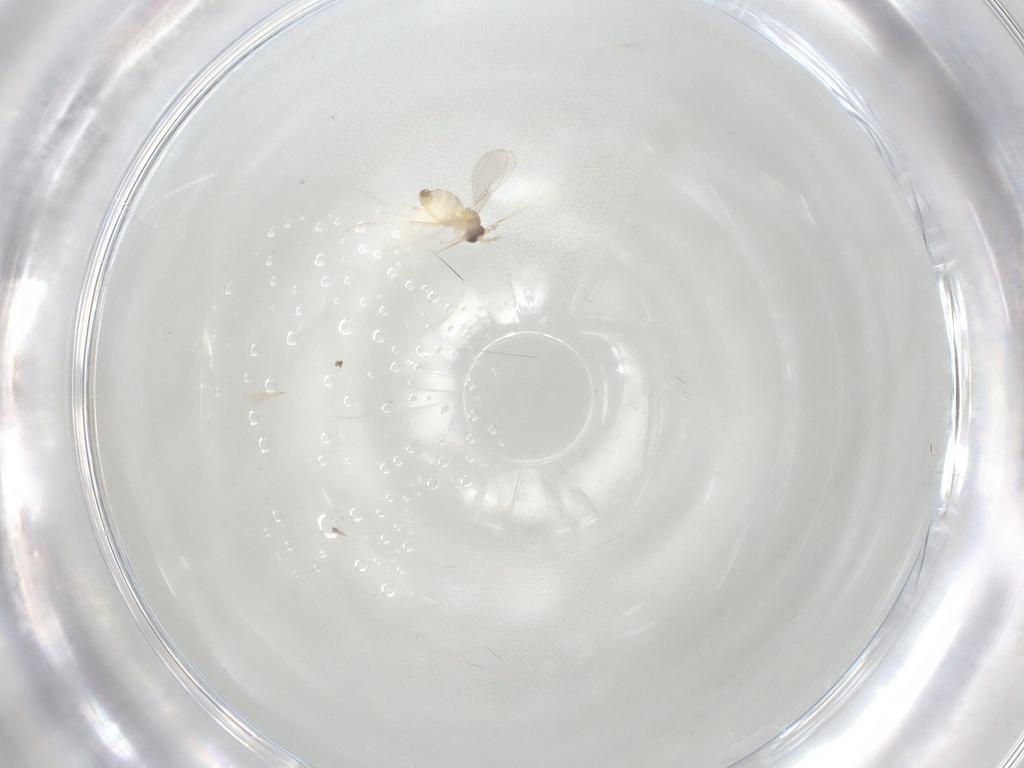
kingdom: Animalia
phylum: Arthropoda
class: Insecta
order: Diptera
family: Cecidomyiidae
